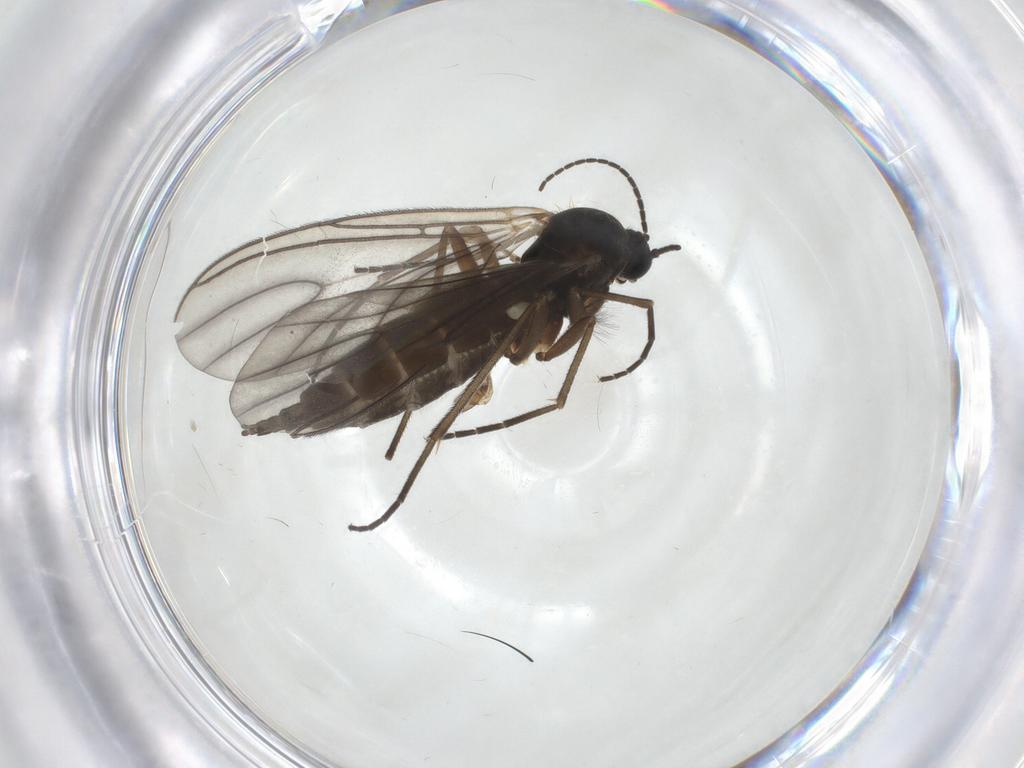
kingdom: Animalia
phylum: Arthropoda
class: Insecta
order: Diptera
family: Sciaridae
